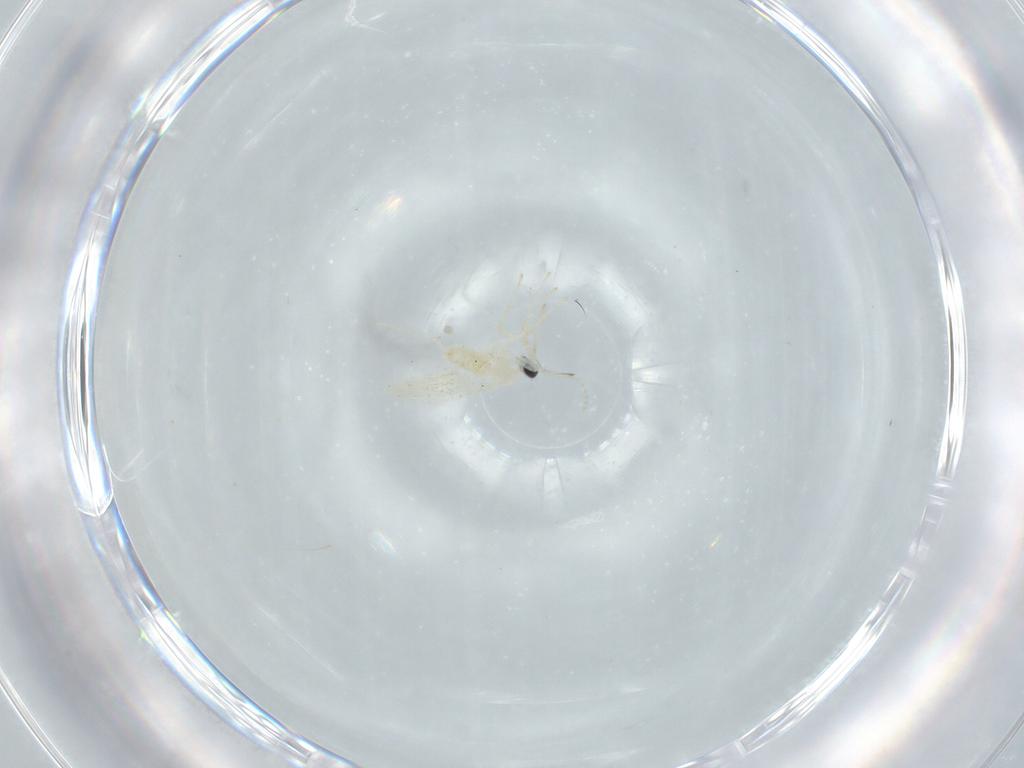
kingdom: Animalia
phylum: Arthropoda
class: Insecta
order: Diptera
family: Cecidomyiidae
